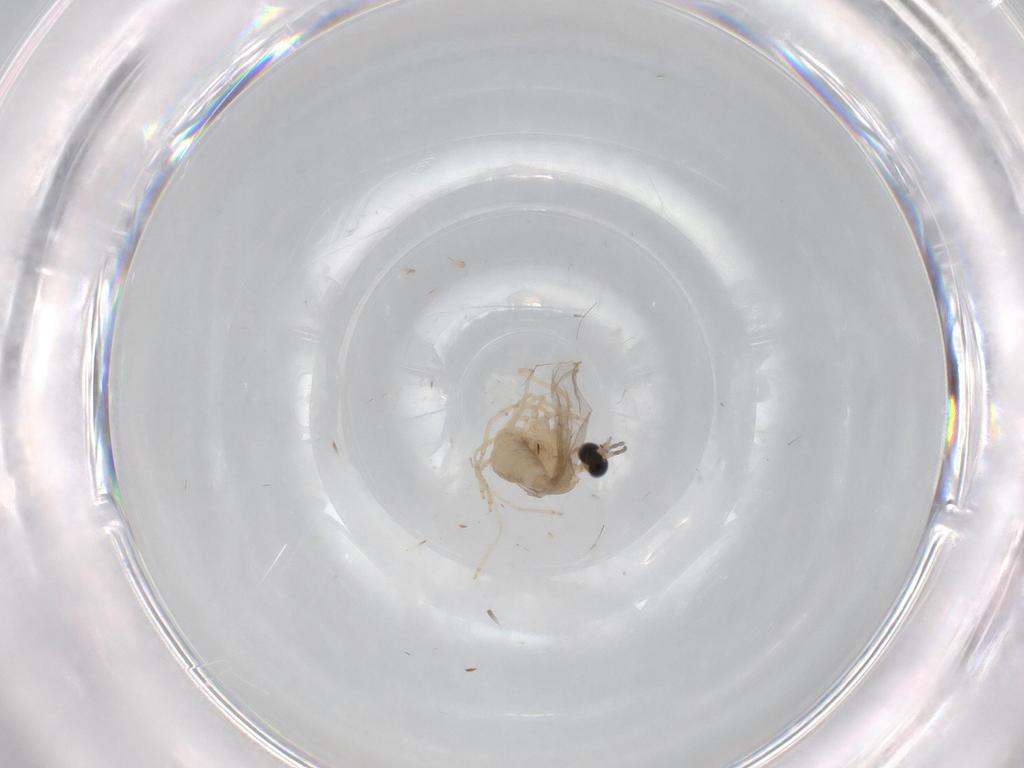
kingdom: Animalia
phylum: Arthropoda
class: Insecta
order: Diptera
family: Cecidomyiidae
